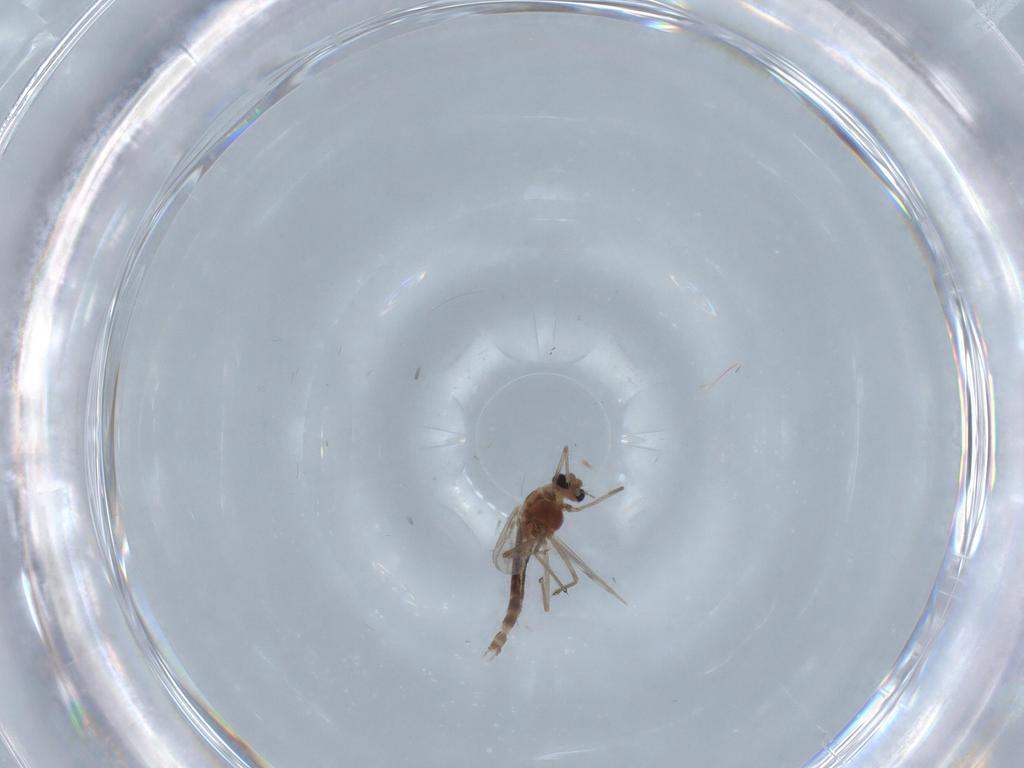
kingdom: Animalia
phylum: Arthropoda
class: Insecta
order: Diptera
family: Chironomidae
